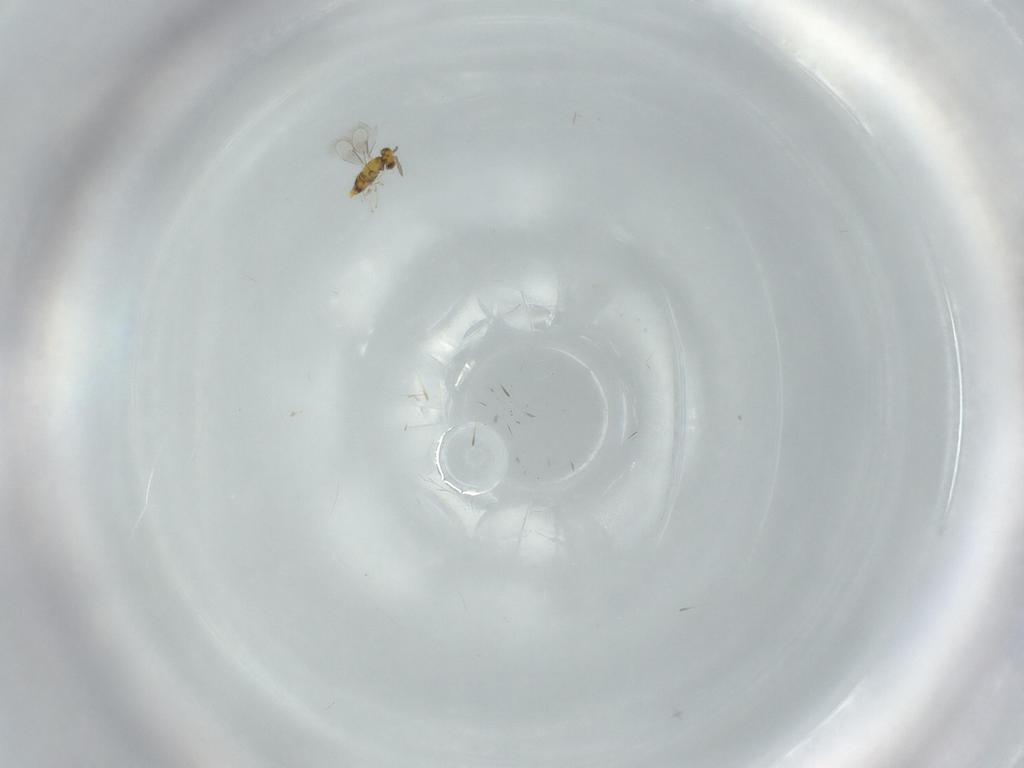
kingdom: Animalia
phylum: Arthropoda
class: Insecta
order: Hymenoptera
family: Aphelinidae
